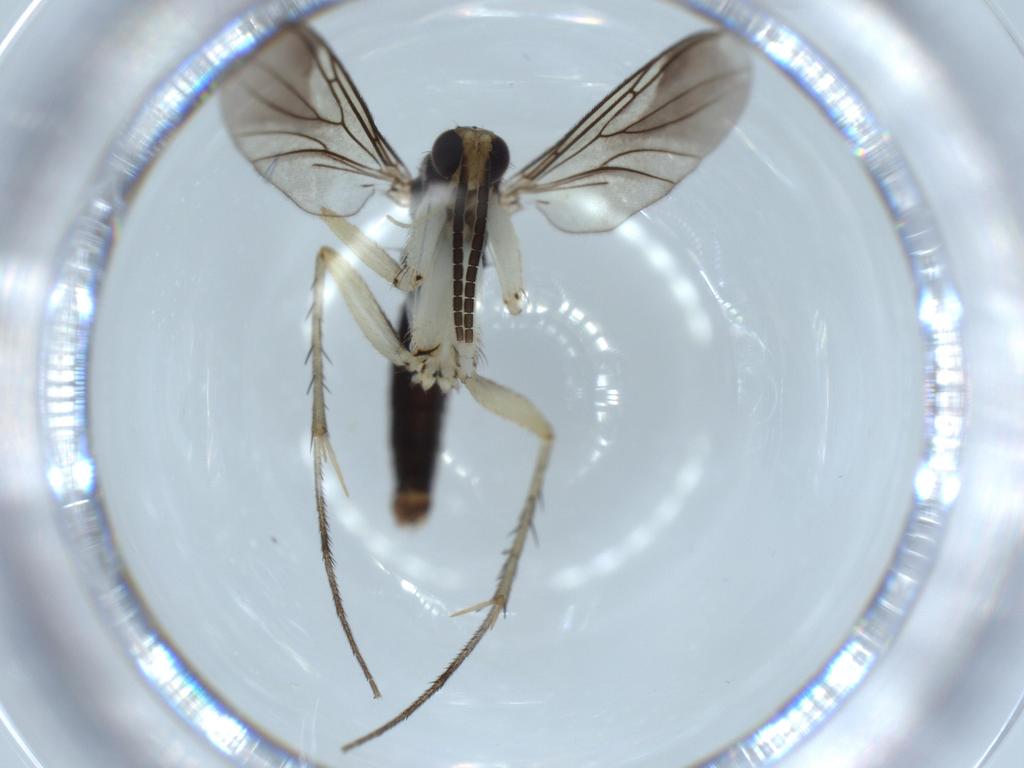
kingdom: Animalia
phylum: Arthropoda
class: Insecta
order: Diptera
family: Sphaeroceridae
